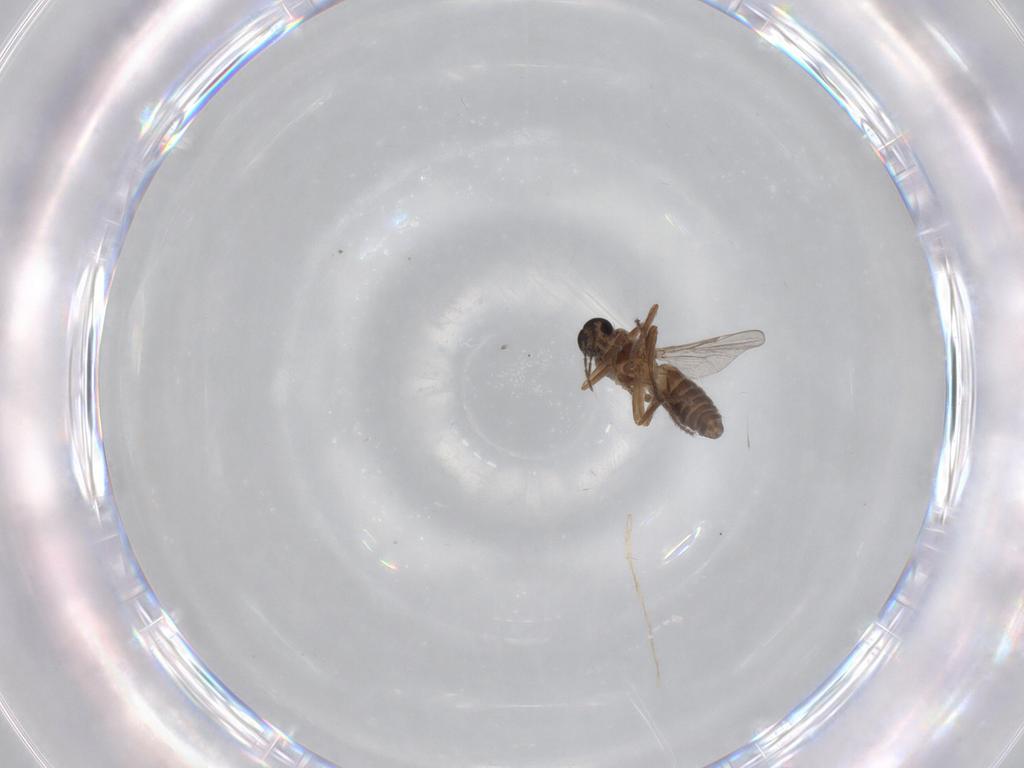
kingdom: Animalia
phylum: Arthropoda
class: Insecta
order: Diptera
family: Ceratopogonidae
